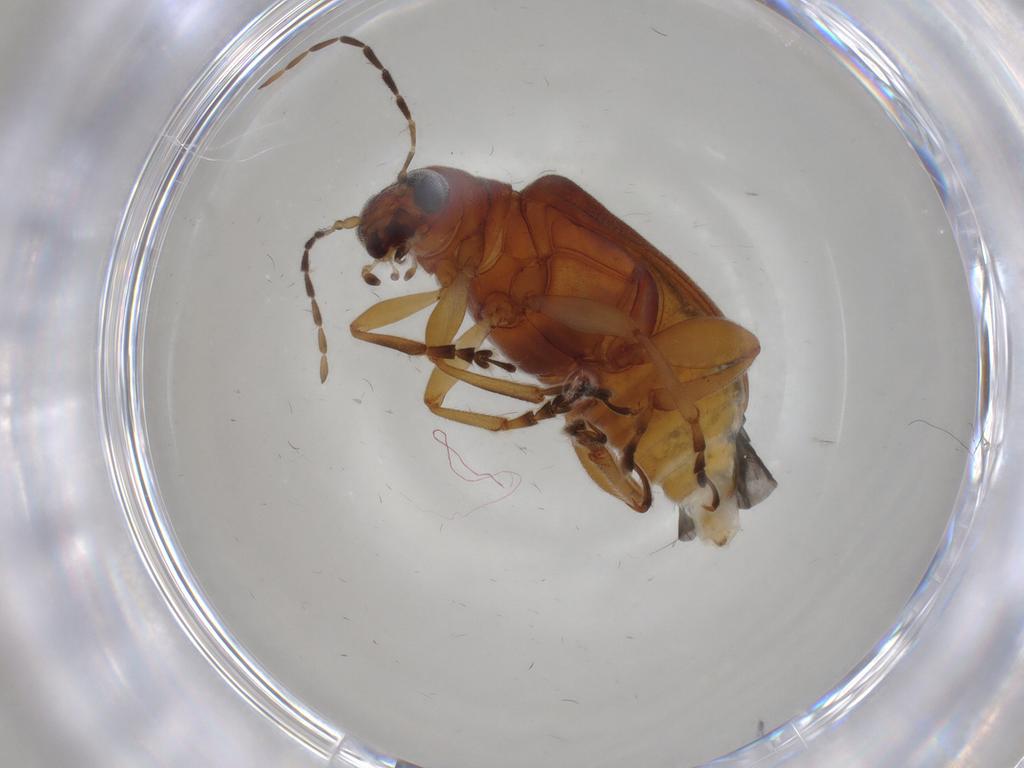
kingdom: Animalia
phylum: Arthropoda
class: Insecta
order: Coleoptera
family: Chrysomelidae
